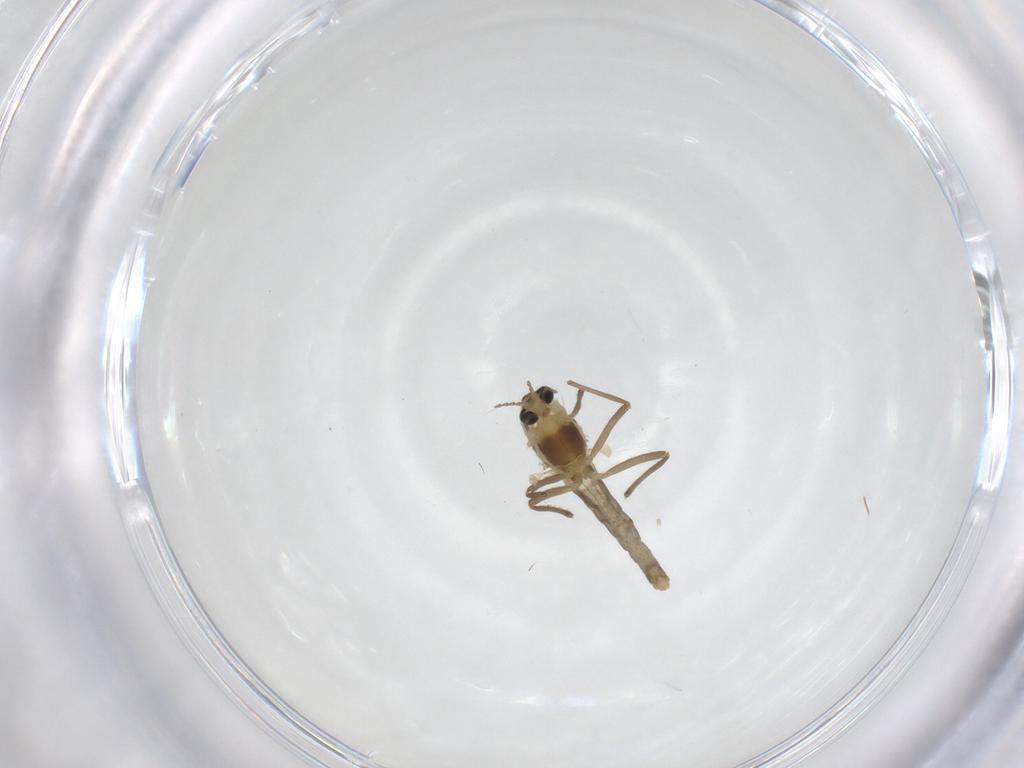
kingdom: Animalia
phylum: Arthropoda
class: Insecta
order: Diptera
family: Chironomidae
